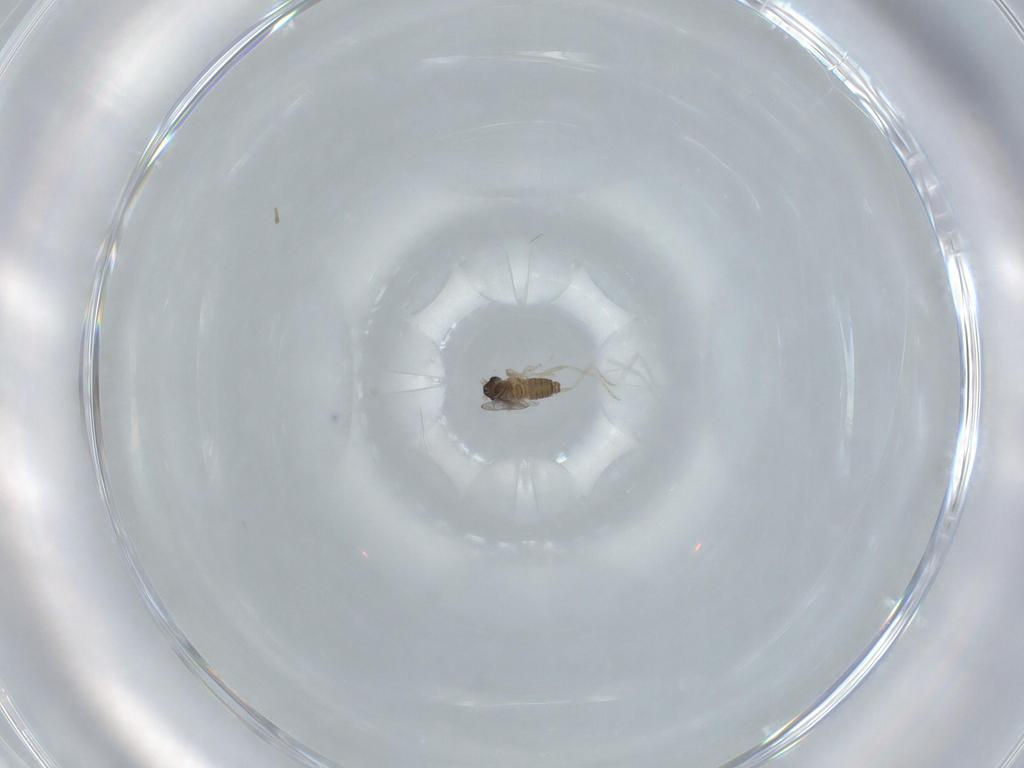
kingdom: Animalia
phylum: Arthropoda
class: Insecta
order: Diptera
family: Cecidomyiidae
